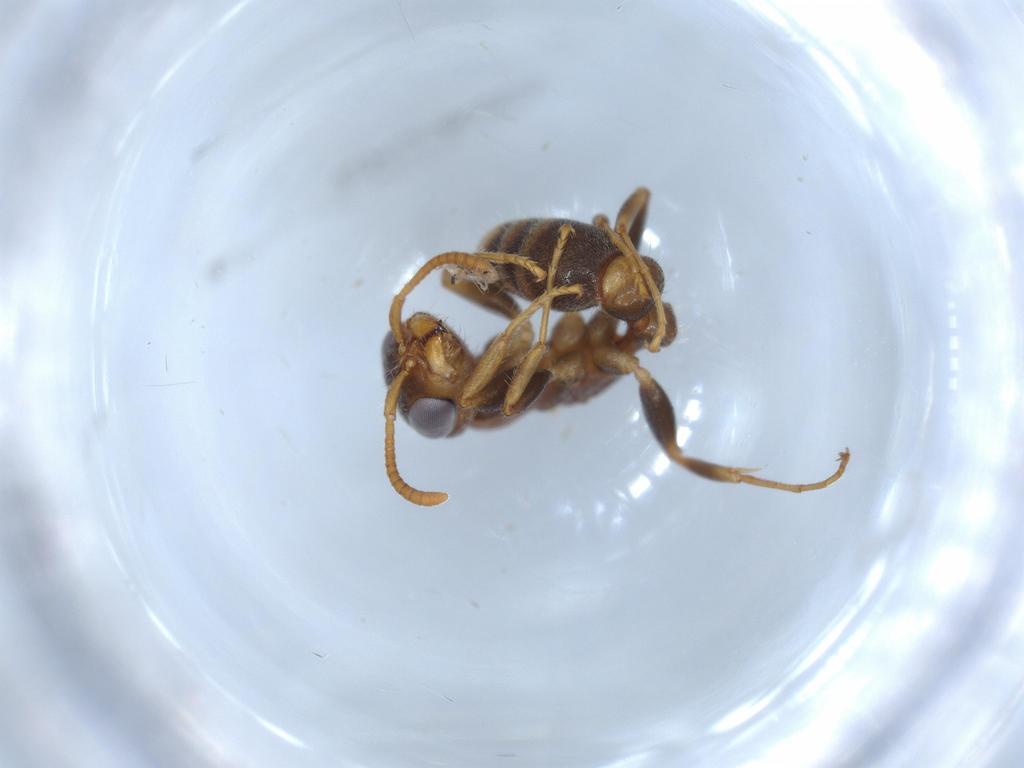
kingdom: Animalia
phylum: Arthropoda
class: Insecta
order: Hymenoptera
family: Formicidae
